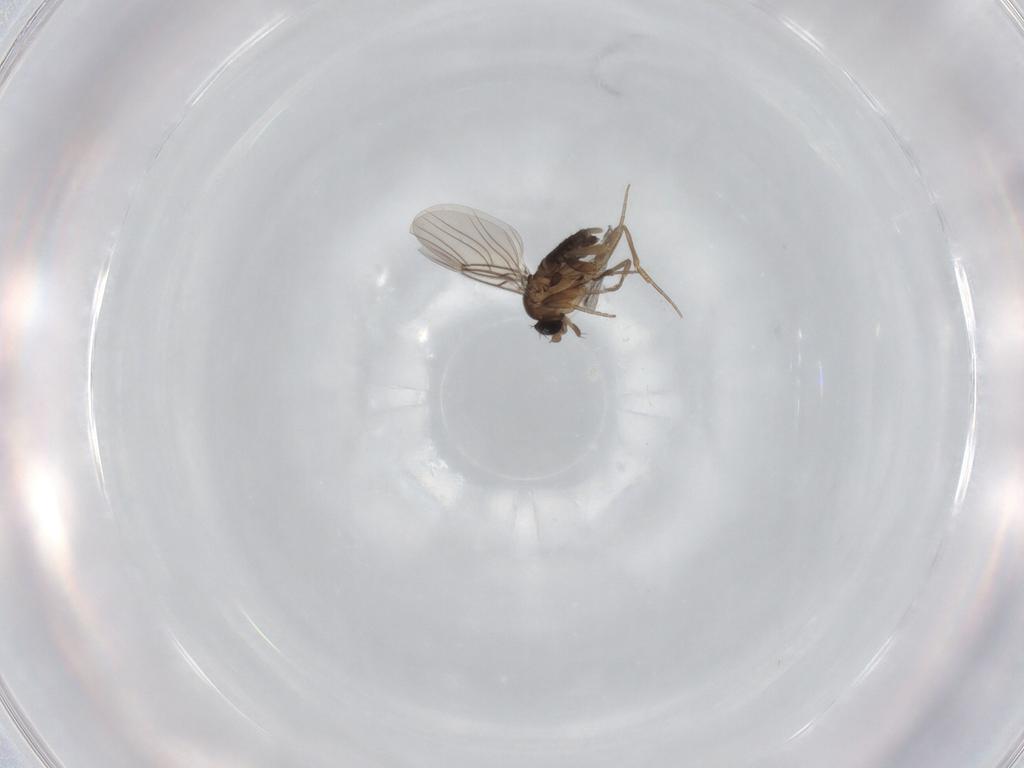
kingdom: Animalia
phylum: Arthropoda
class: Insecta
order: Diptera
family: Phoridae
